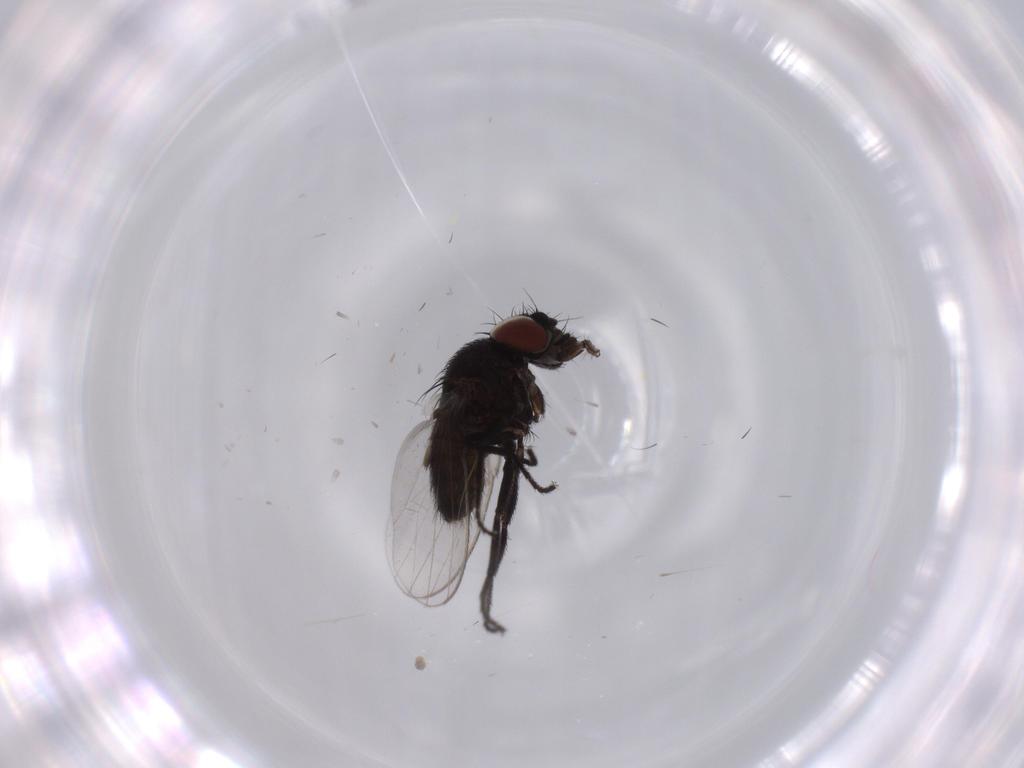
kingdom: Animalia
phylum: Arthropoda
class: Insecta
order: Diptera
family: Milichiidae
